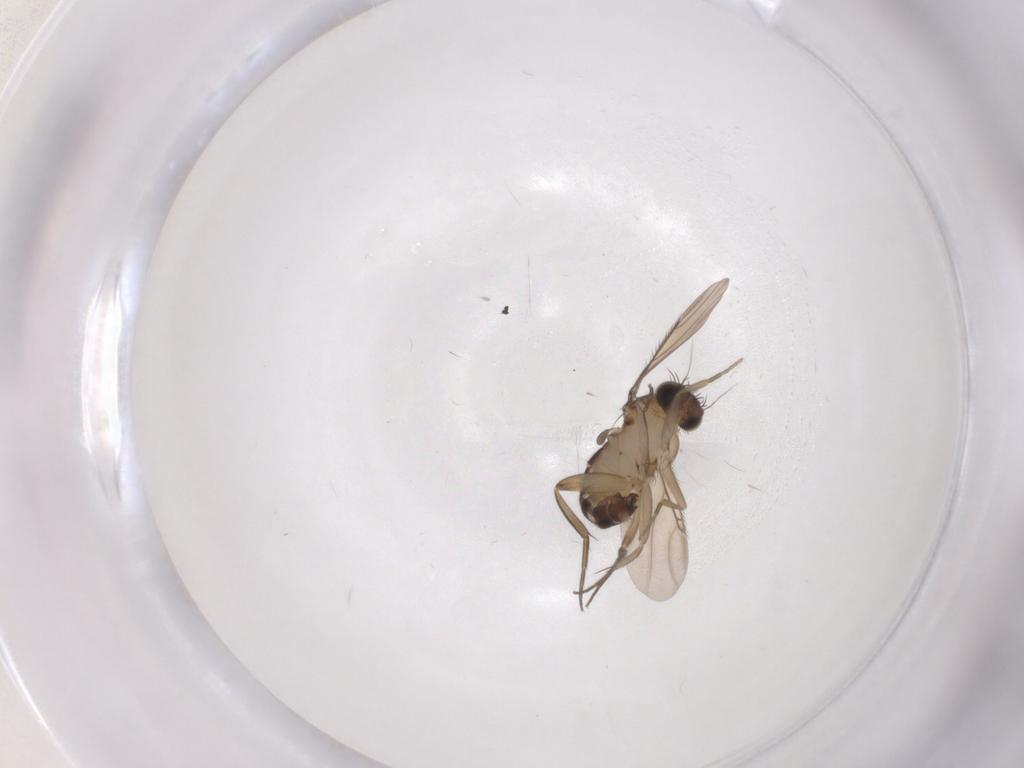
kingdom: Animalia
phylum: Arthropoda
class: Insecta
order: Diptera
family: Phoridae
